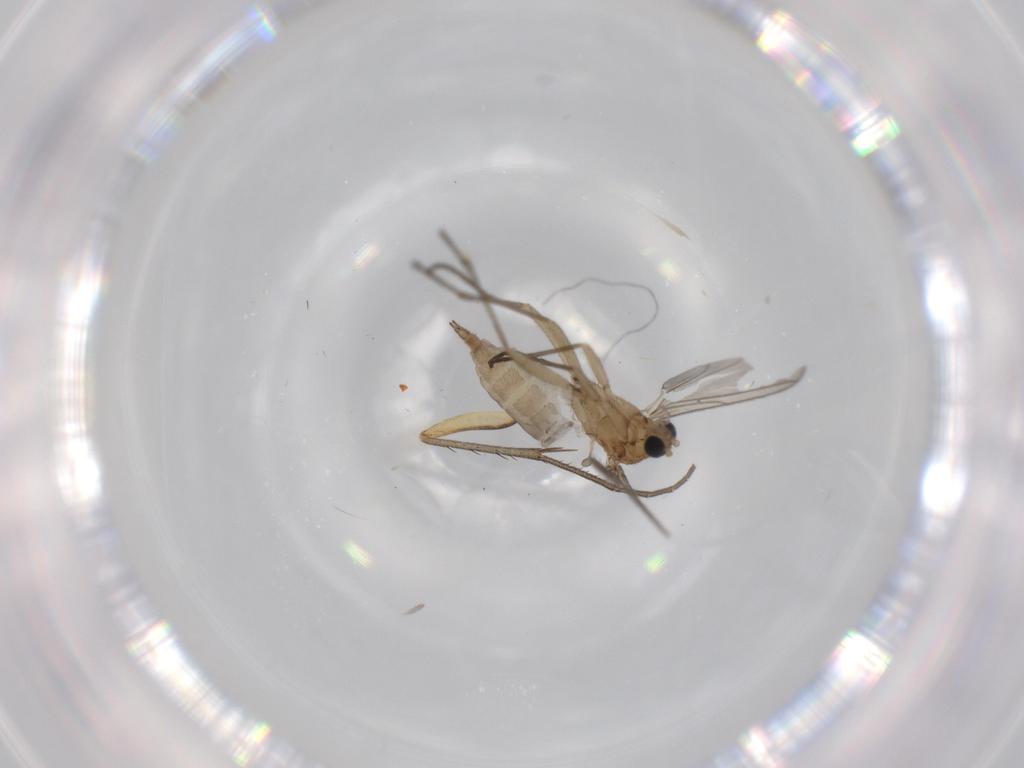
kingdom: Animalia
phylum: Arthropoda
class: Insecta
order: Diptera
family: Sciaridae
